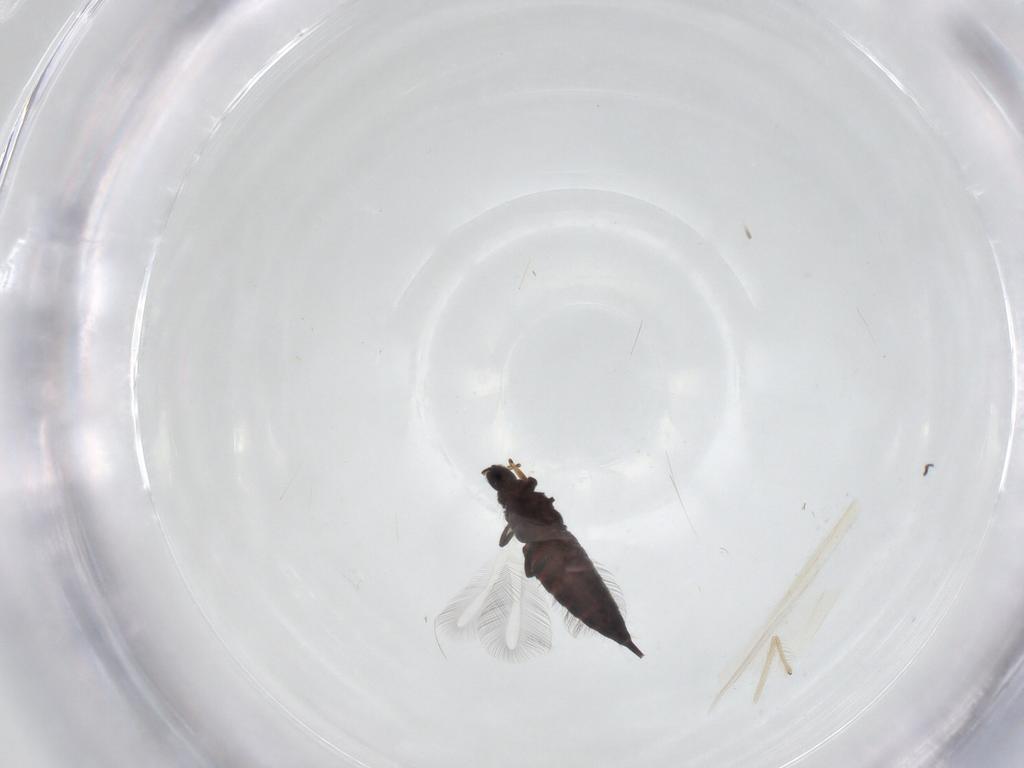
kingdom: Animalia
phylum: Arthropoda
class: Insecta
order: Thysanoptera
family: Phlaeothripidae
